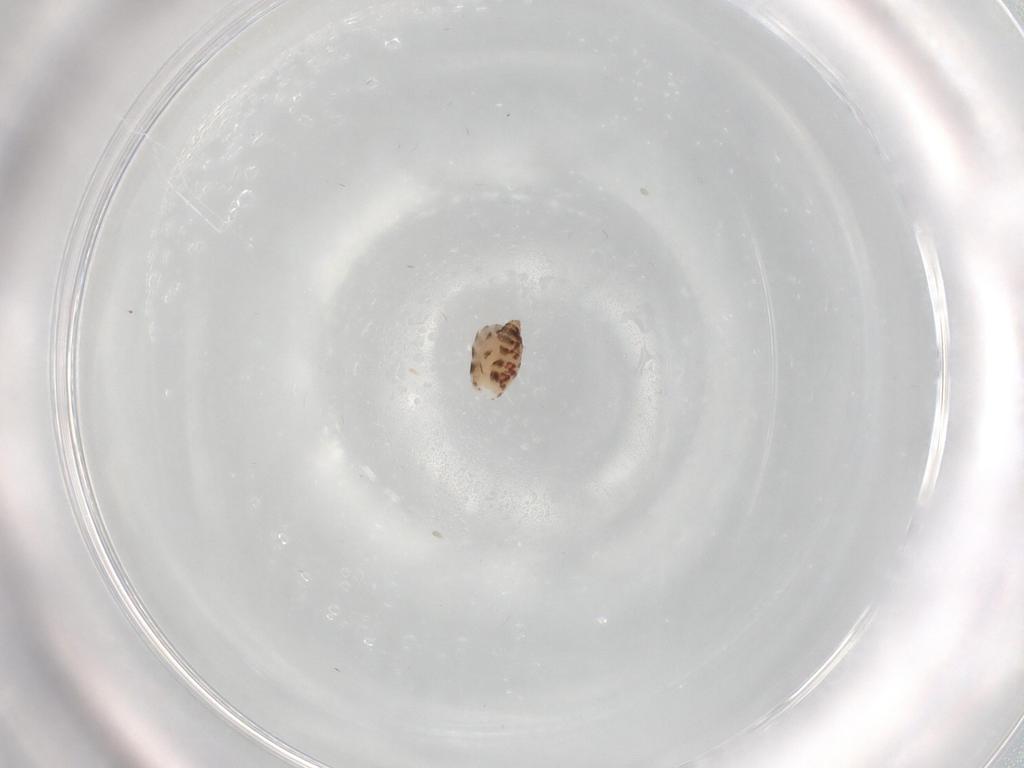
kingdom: Animalia
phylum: Arthropoda
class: Insecta
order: Diptera
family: Ceratopogonidae
